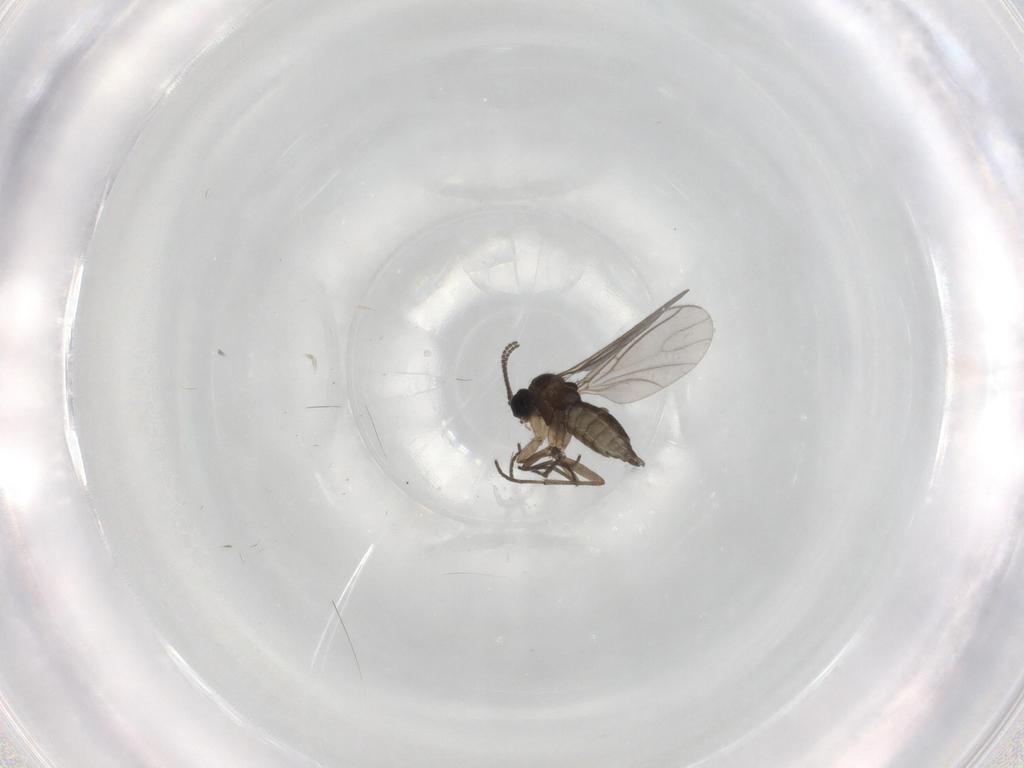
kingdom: Animalia
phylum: Arthropoda
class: Insecta
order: Diptera
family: Sciaridae
